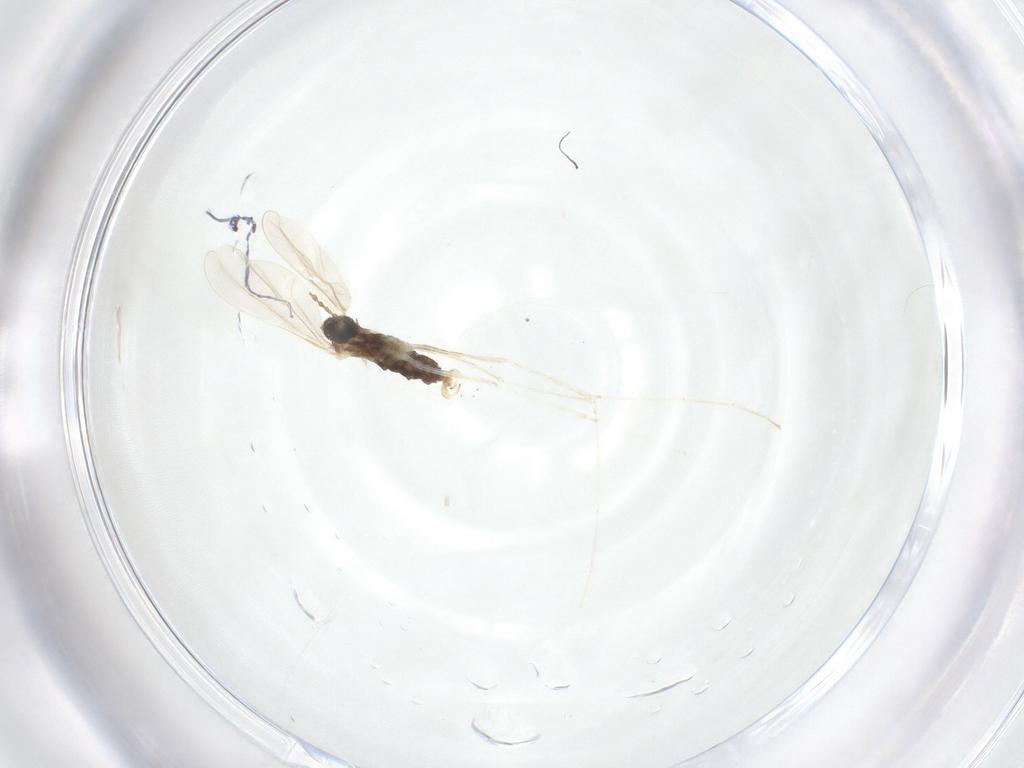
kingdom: Animalia
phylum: Arthropoda
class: Insecta
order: Diptera
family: Cecidomyiidae
